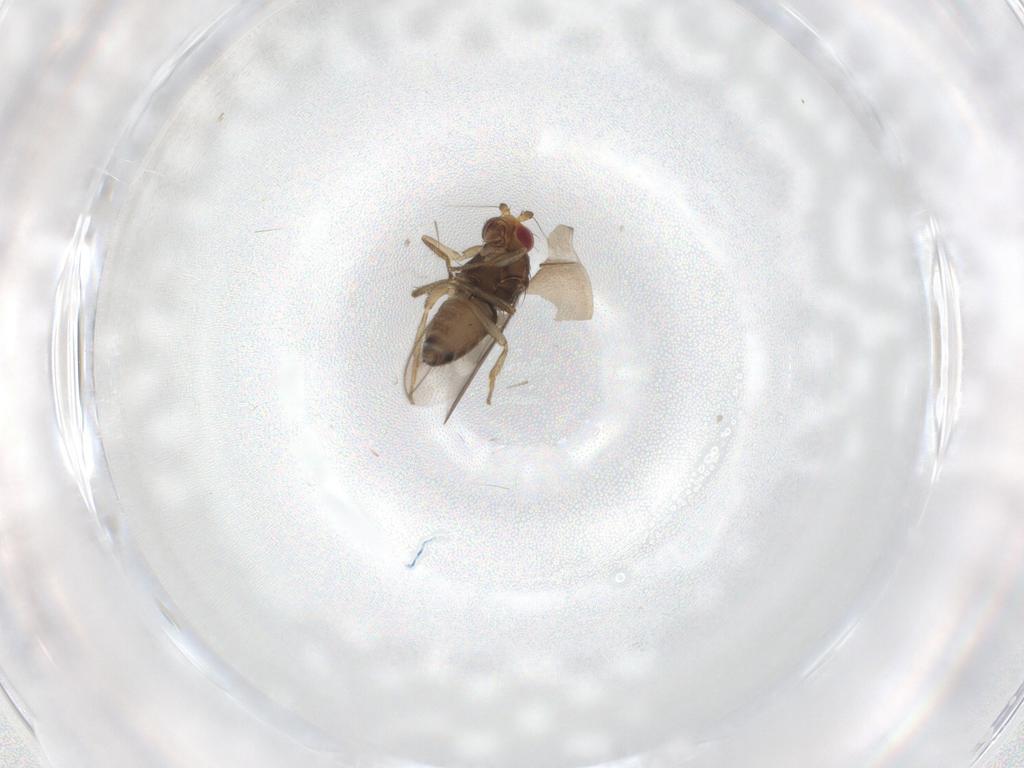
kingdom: Animalia
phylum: Arthropoda
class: Insecta
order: Diptera
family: Sphaeroceridae
